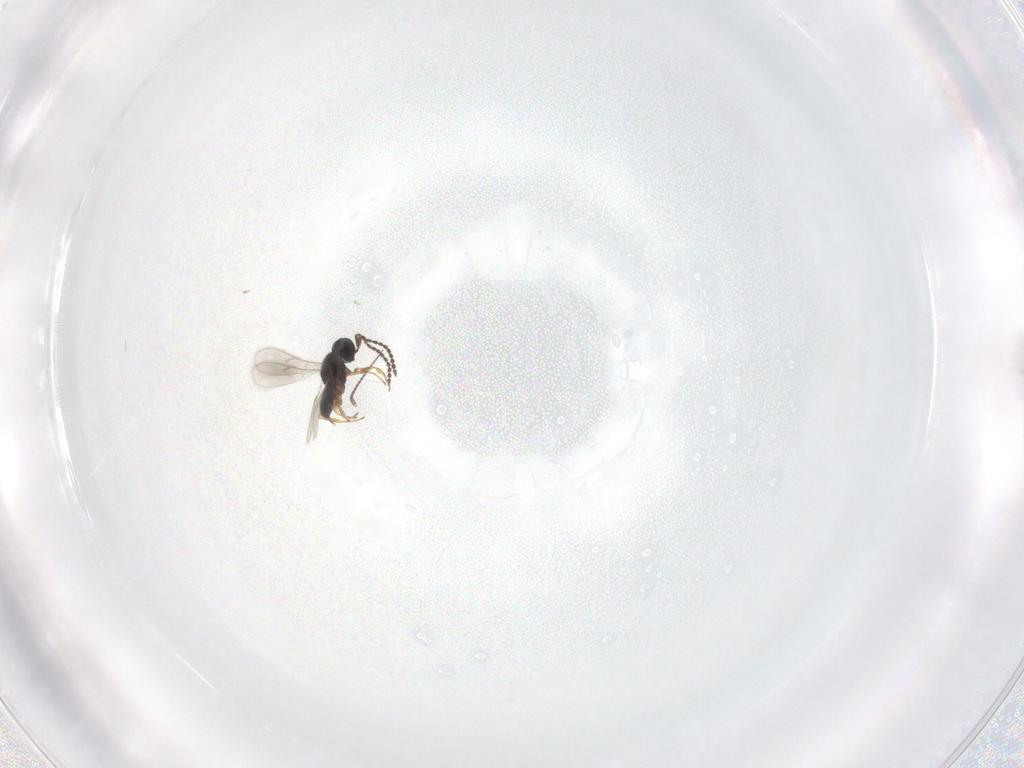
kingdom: Animalia
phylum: Arthropoda
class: Insecta
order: Hymenoptera
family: Scelionidae
